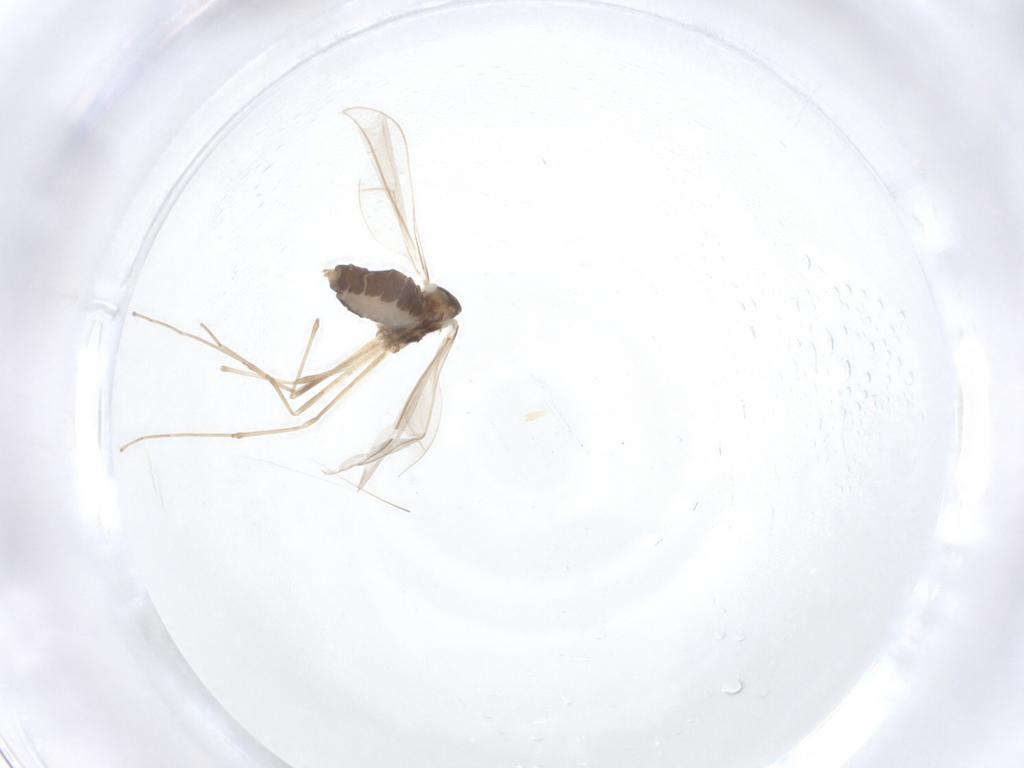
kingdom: Animalia
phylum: Arthropoda
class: Insecta
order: Diptera
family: Cecidomyiidae
